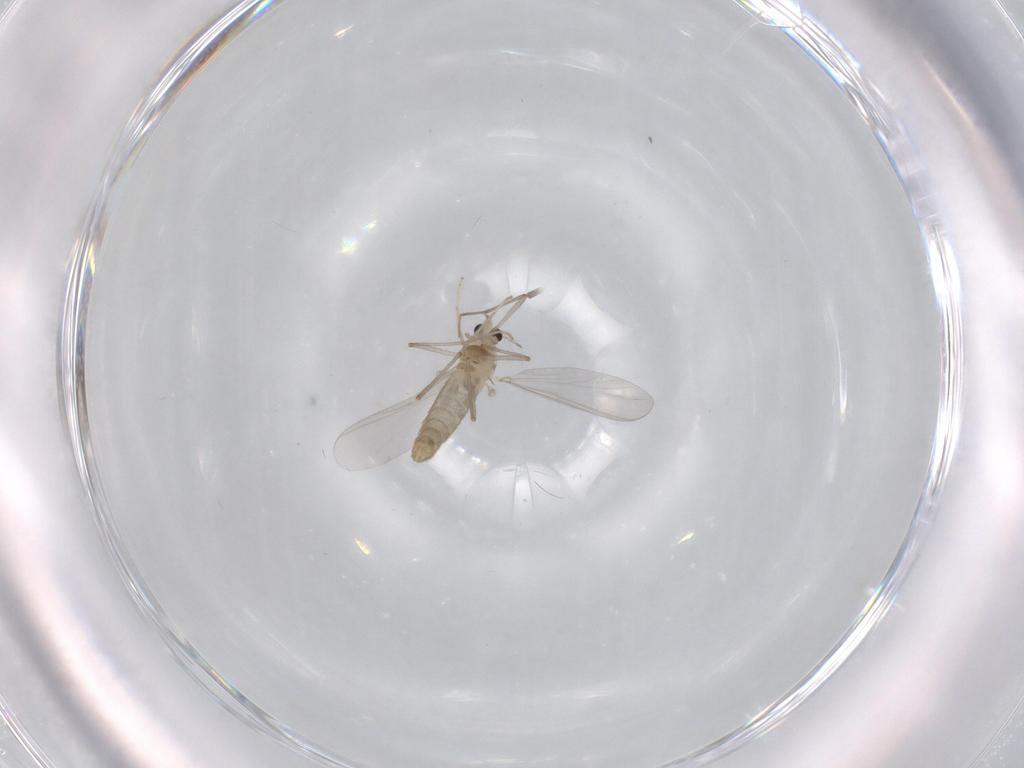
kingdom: Animalia
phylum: Arthropoda
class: Insecta
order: Diptera
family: Chironomidae
